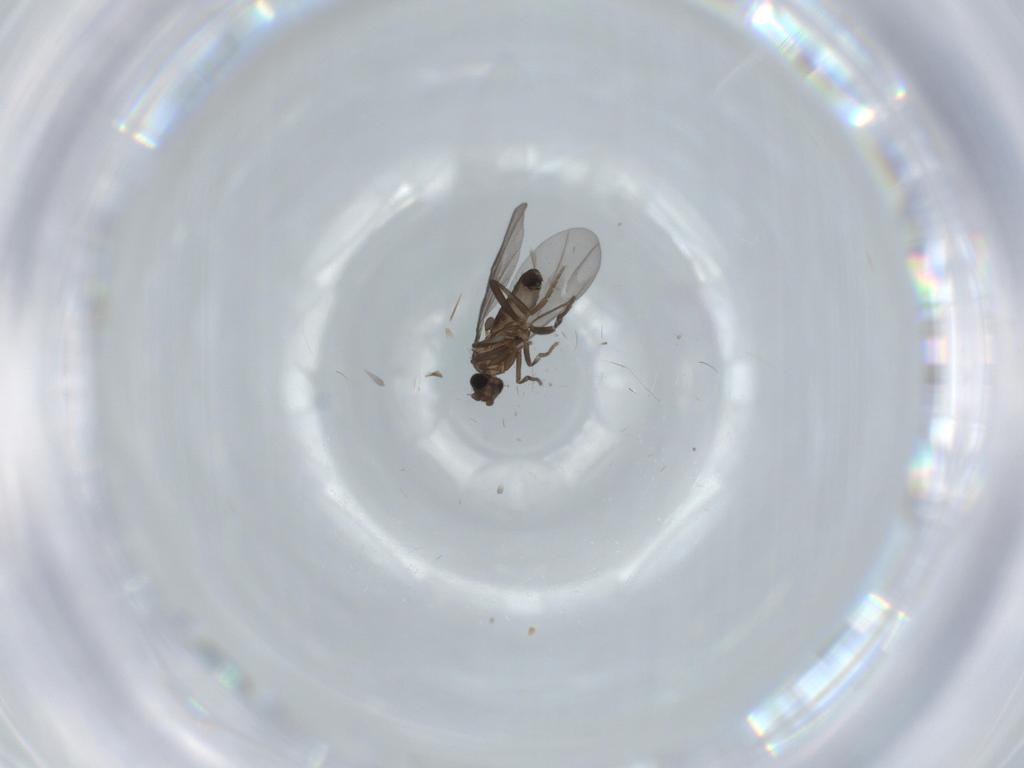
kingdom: Animalia
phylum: Arthropoda
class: Insecta
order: Diptera
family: Phoridae
